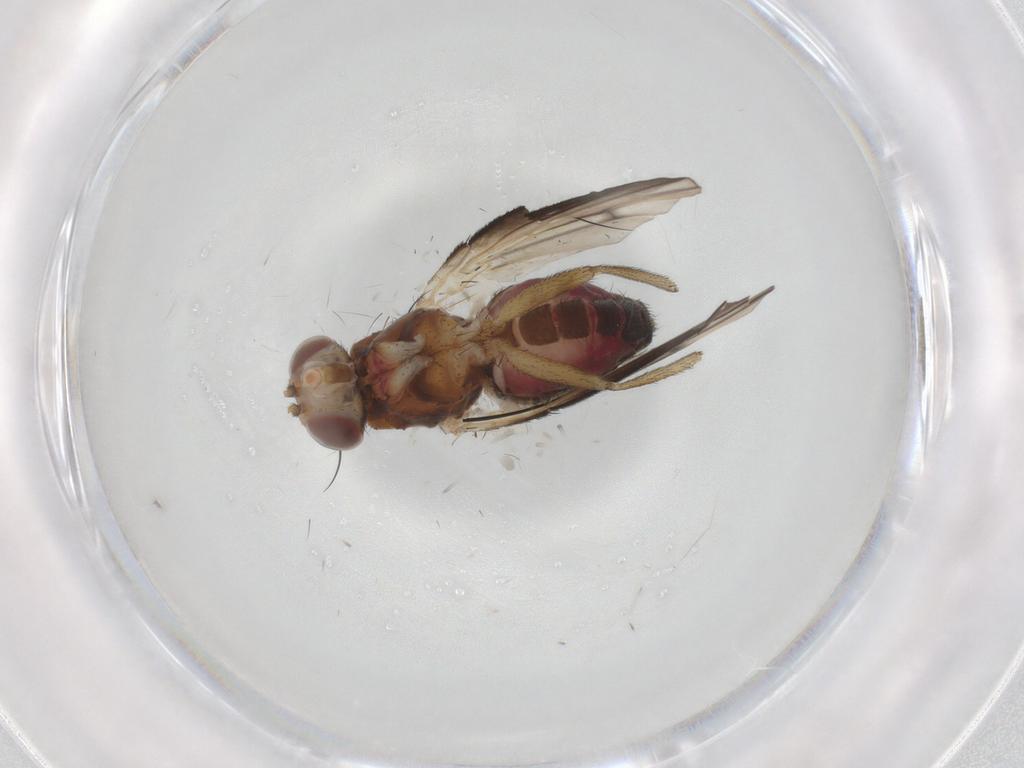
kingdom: Animalia
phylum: Arthropoda
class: Insecta
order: Diptera
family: Heleomyzidae
